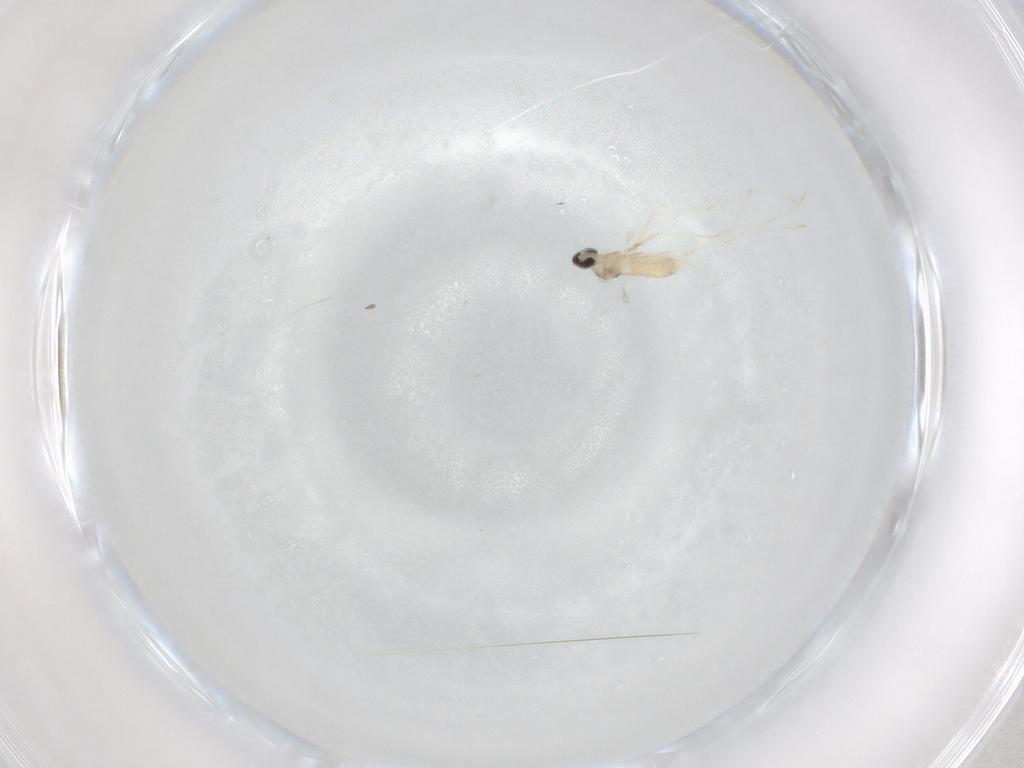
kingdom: Animalia
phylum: Arthropoda
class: Insecta
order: Diptera
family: Cecidomyiidae
